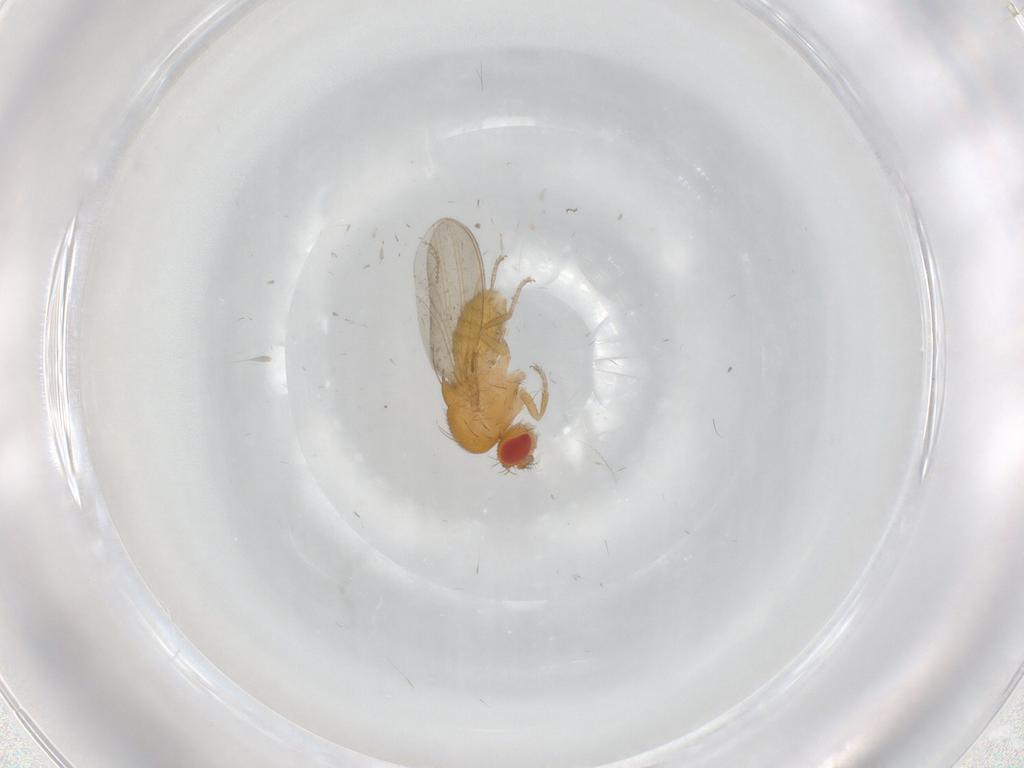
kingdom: Animalia
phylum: Arthropoda
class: Insecta
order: Diptera
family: Drosophilidae
